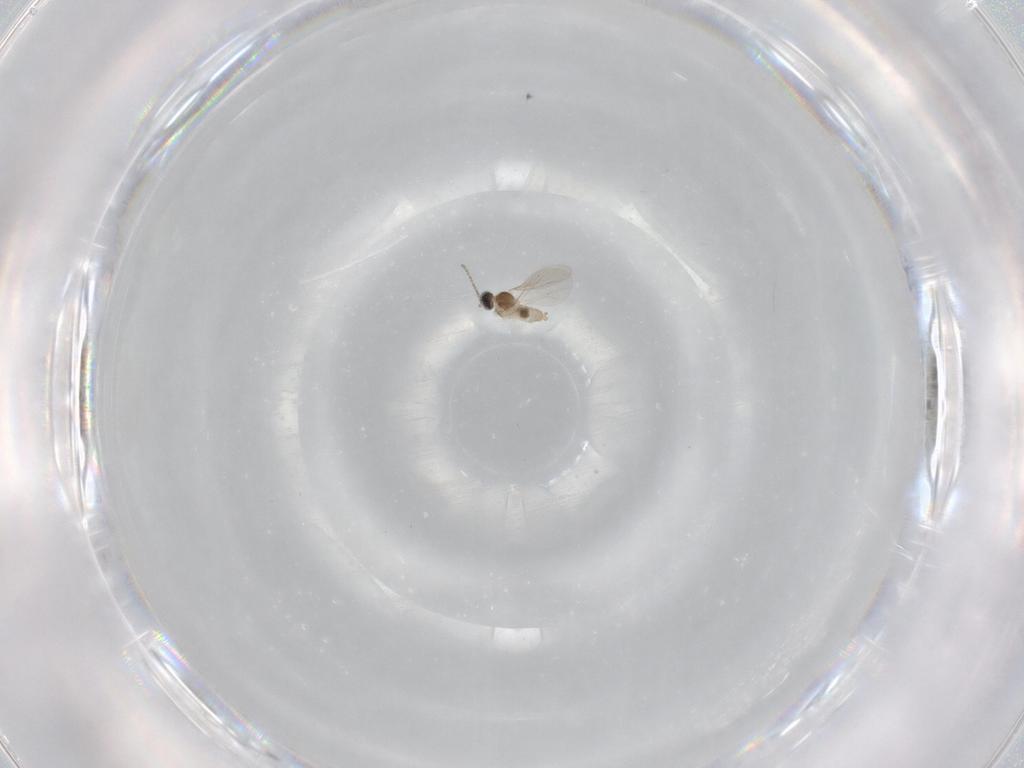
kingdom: Animalia
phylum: Arthropoda
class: Insecta
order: Diptera
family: Cecidomyiidae
